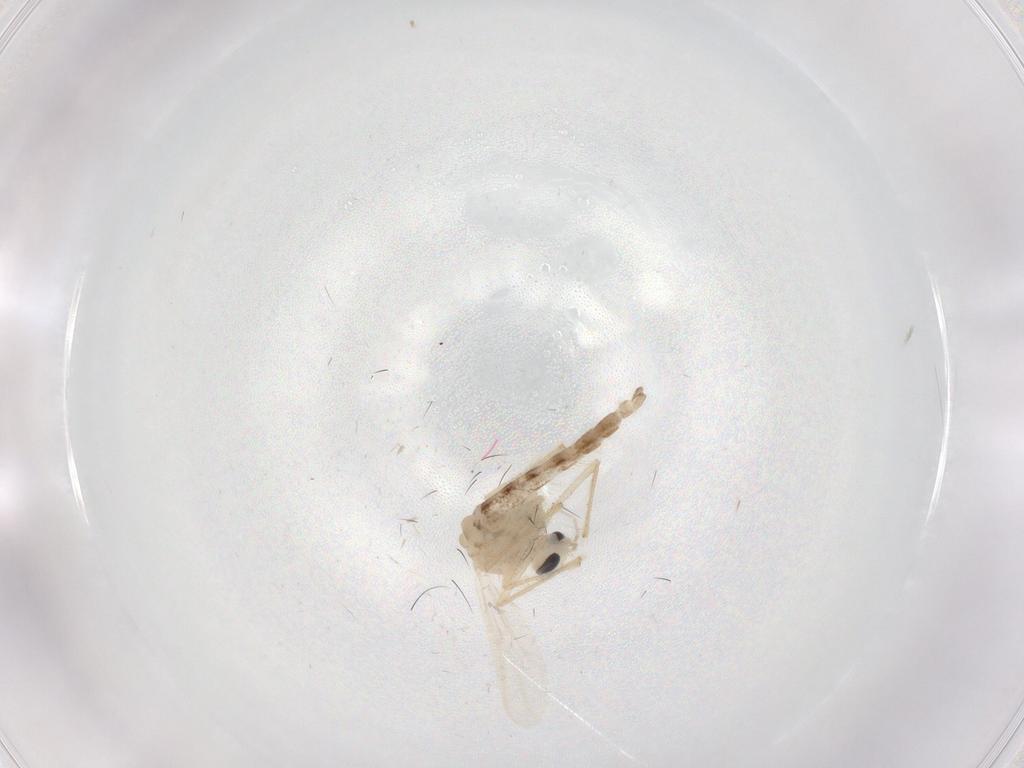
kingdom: Animalia
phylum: Arthropoda
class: Insecta
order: Diptera
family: Chironomidae
